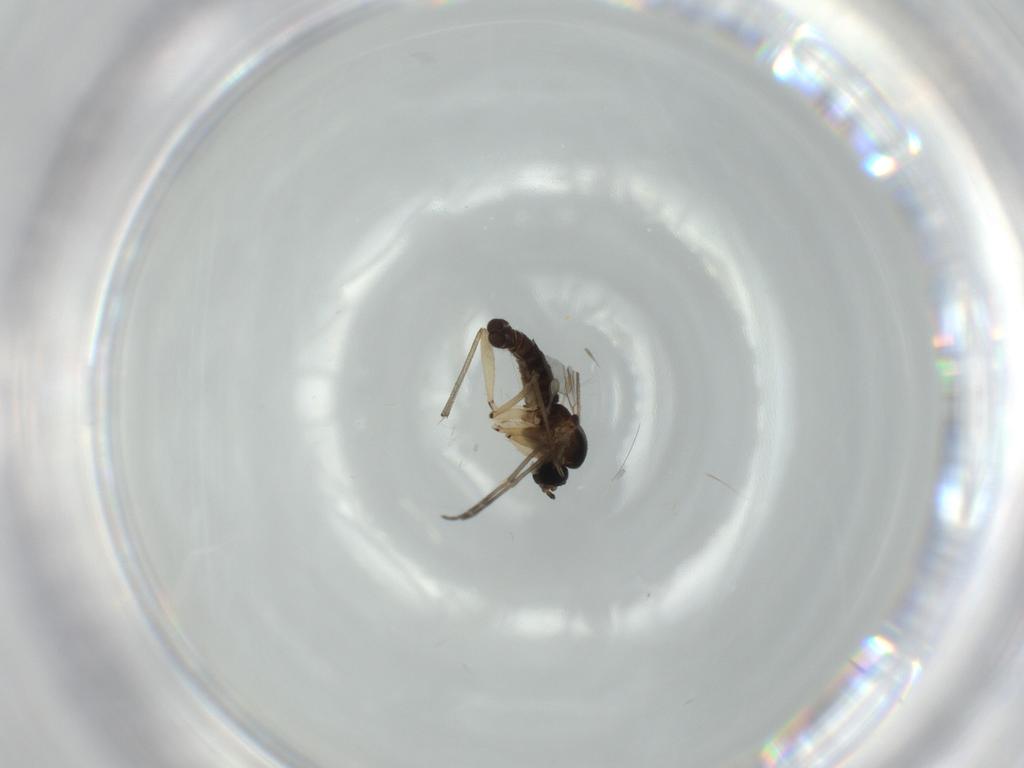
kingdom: Animalia
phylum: Arthropoda
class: Insecta
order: Diptera
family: Sciaridae
